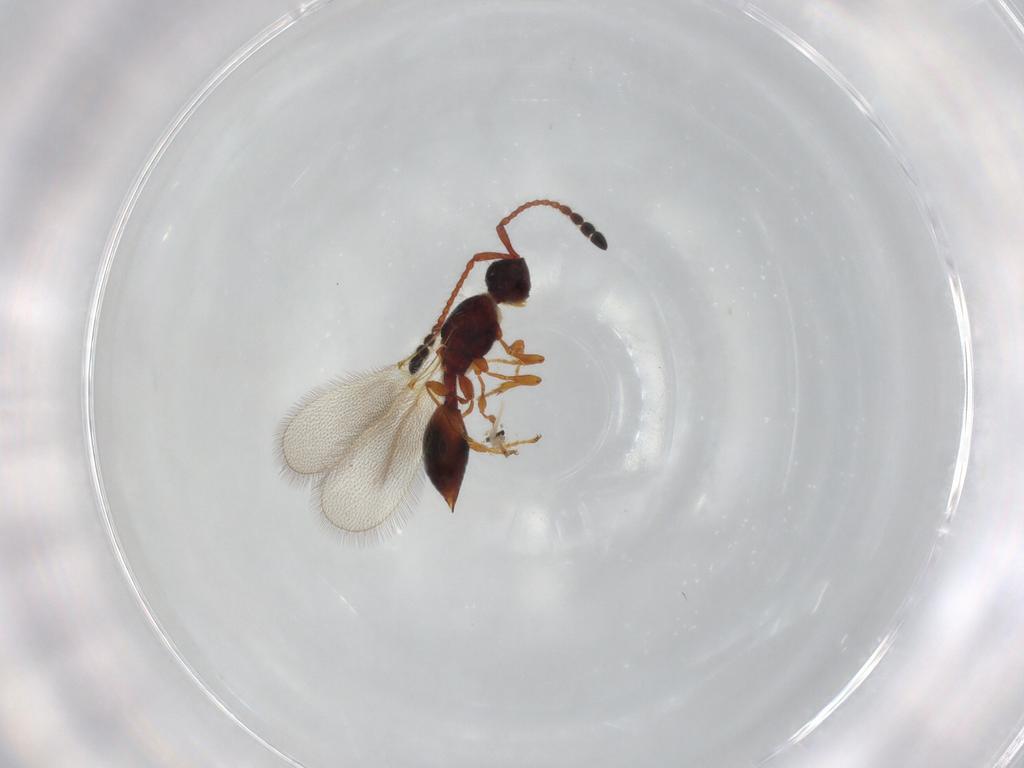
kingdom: Animalia
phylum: Arthropoda
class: Insecta
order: Hymenoptera
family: Diapriidae
